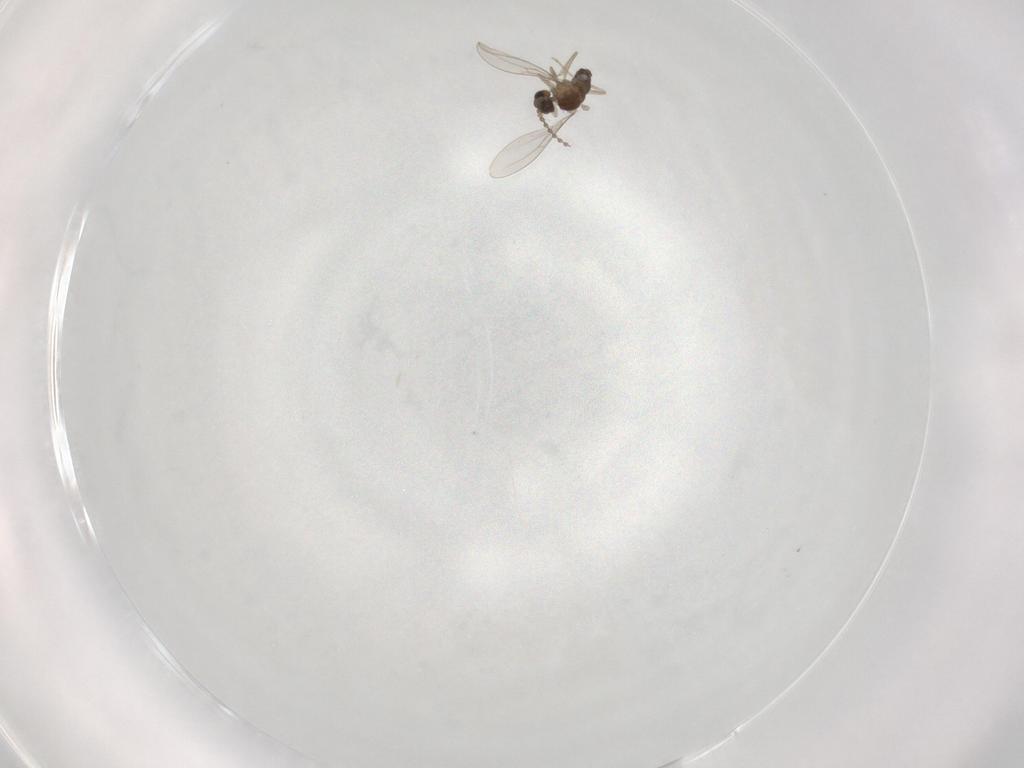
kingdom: Animalia
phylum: Arthropoda
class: Insecta
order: Diptera
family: Cecidomyiidae
